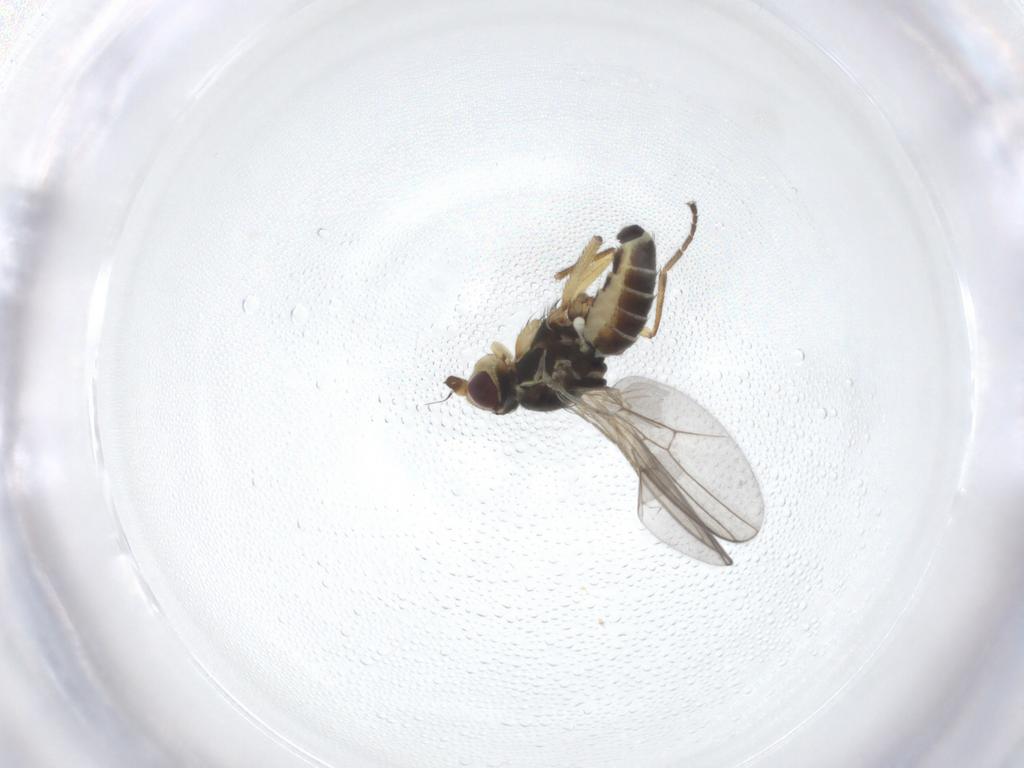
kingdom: Animalia
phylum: Arthropoda
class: Insecta
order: Diptera
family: Agromyzidae
